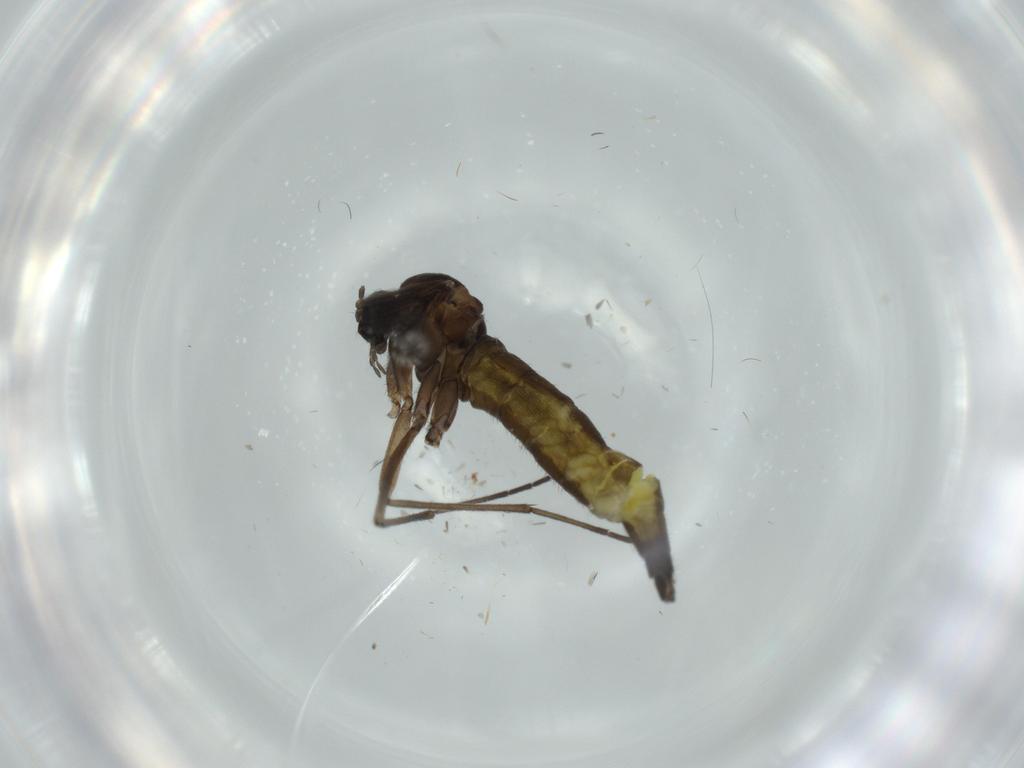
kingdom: Animalia
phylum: Arthropoda
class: Insecta
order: Diptera
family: Sciaridae
